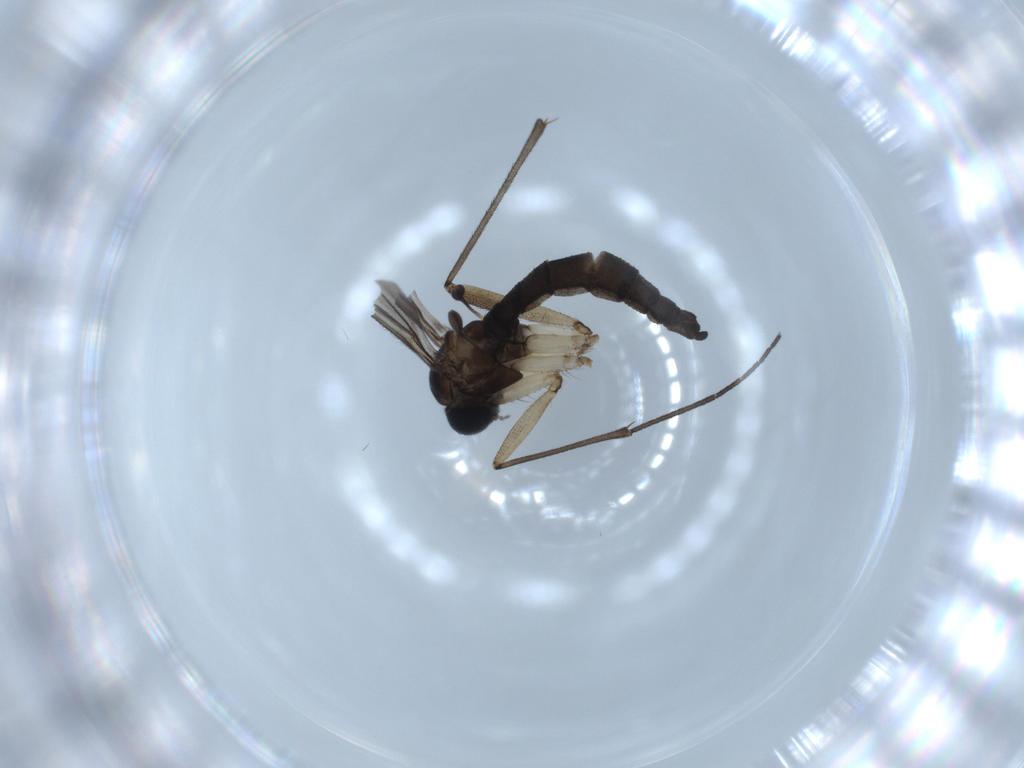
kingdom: Animalia
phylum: Arthropoda
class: Insecta
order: Diptera
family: Sciaridae
